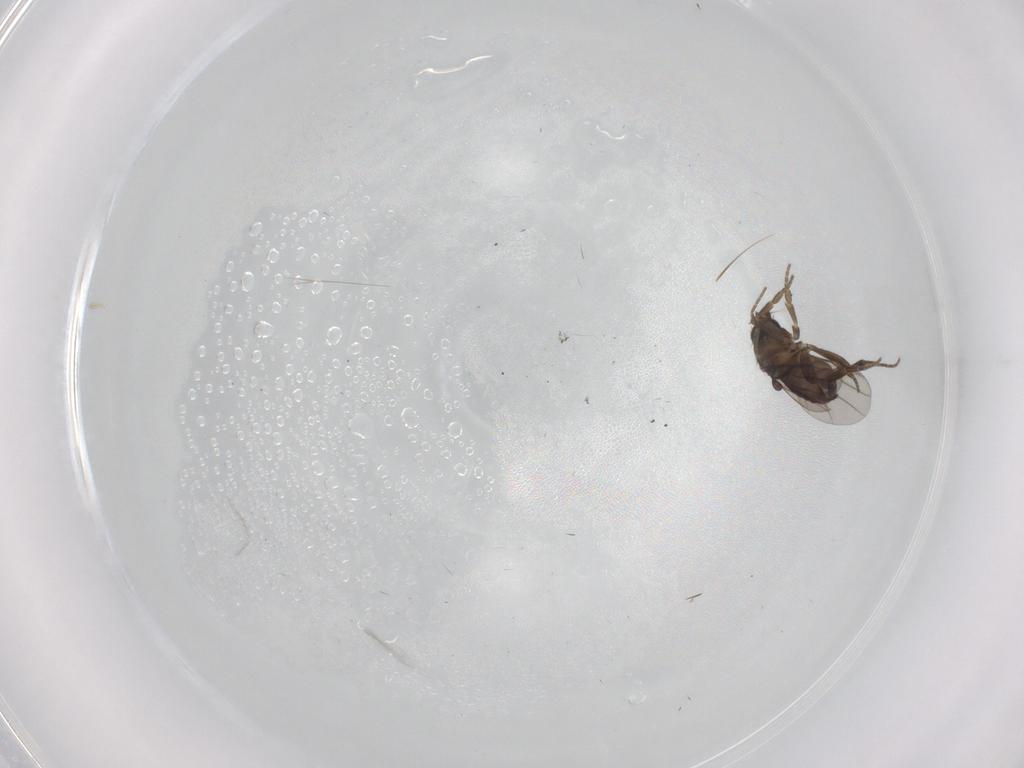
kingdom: Animalia
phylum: Arthropoda
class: Insecta
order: Diptera
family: Phoridae
